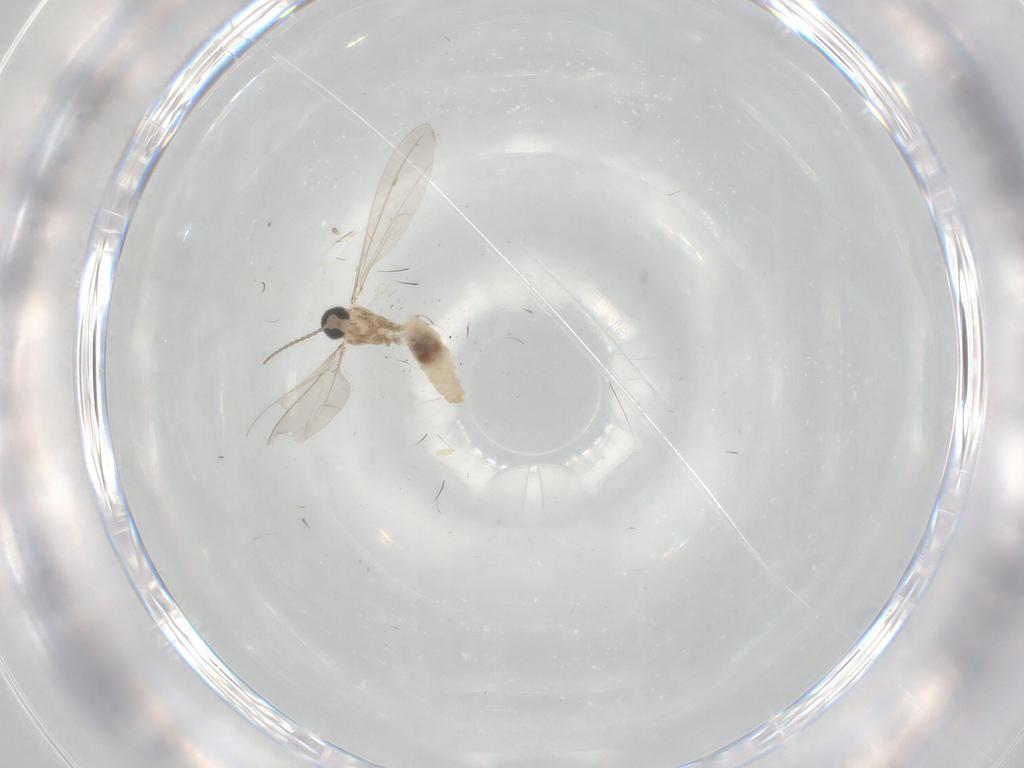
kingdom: Animalia
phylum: Arthropoda
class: Insecta
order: Diptera
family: Cecidomyiidae
